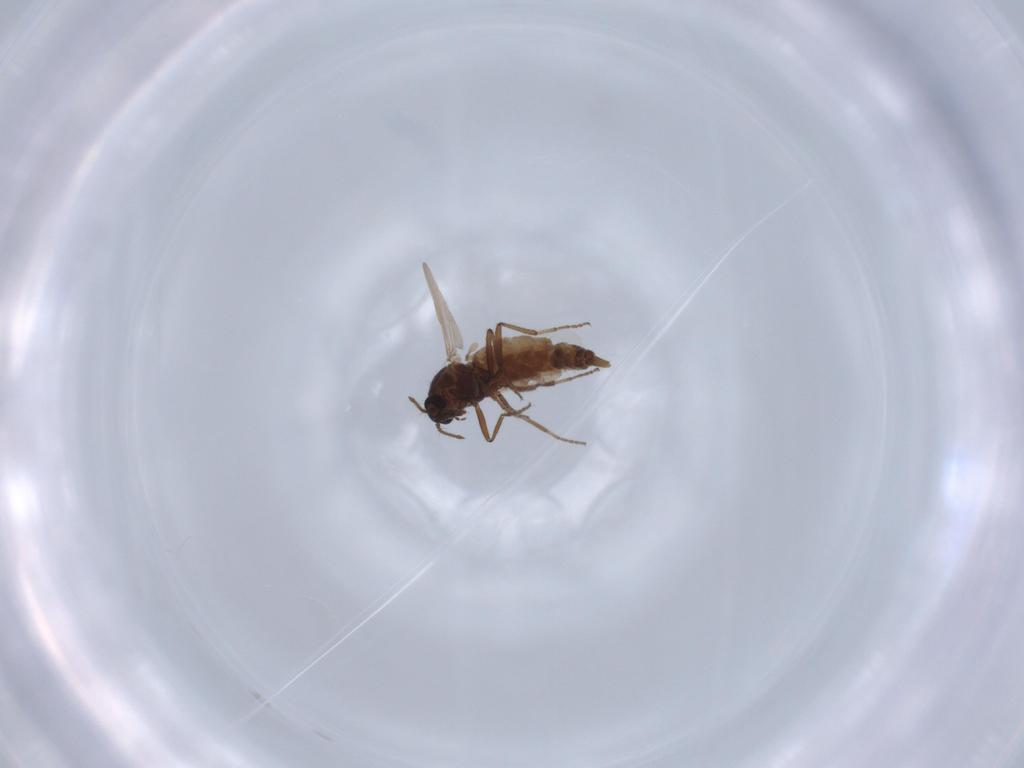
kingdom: Animalia
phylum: Arthropoda
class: Insecta
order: Diptera
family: Ceratopogonidae
